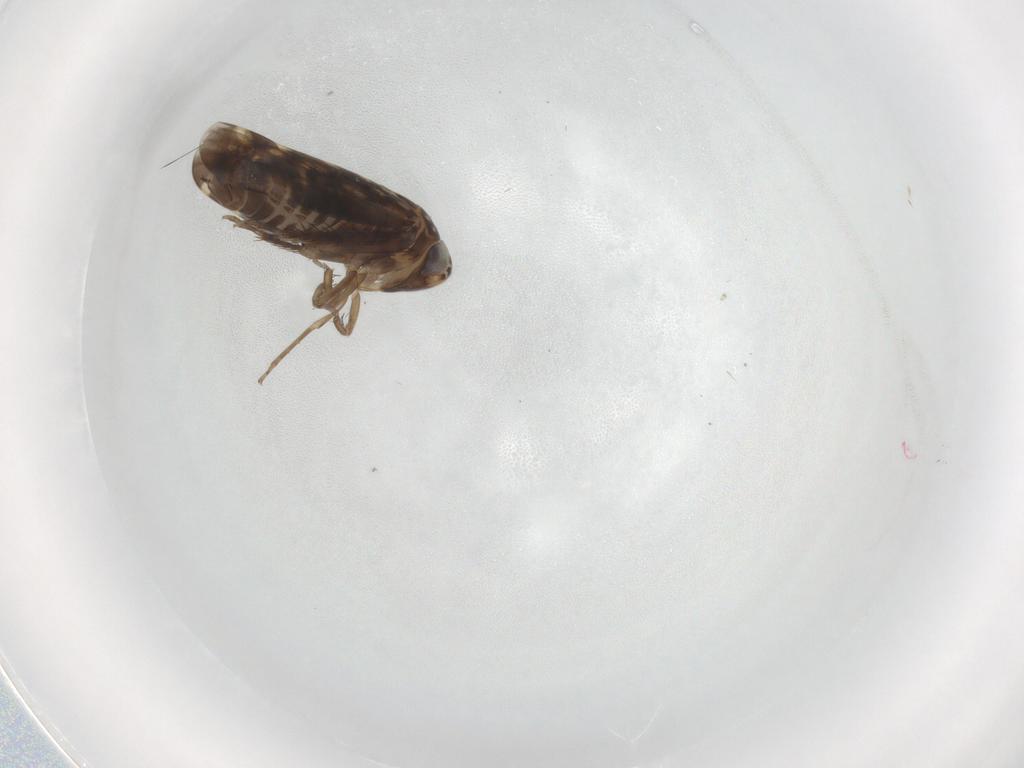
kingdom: Animalia
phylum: Arthropoda
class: Insecta
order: Hemiptera
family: Cicadellidae
